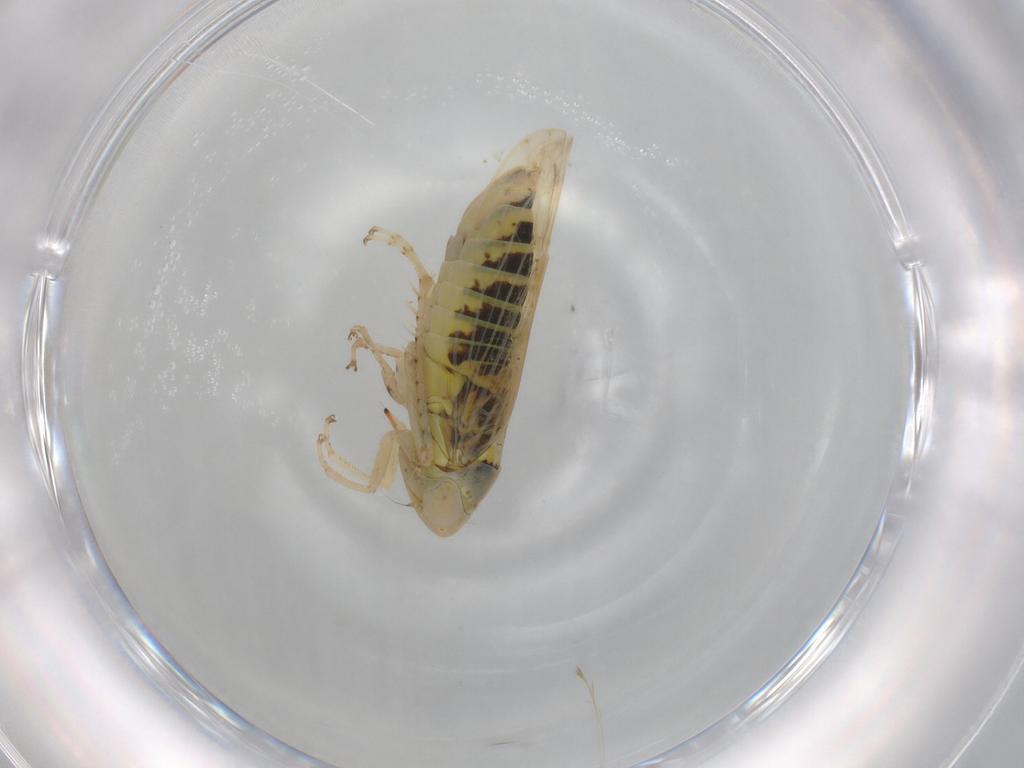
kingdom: Animalia
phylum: Arthropoda
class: Insecta
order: Hemiptera
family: Cicadellidae
